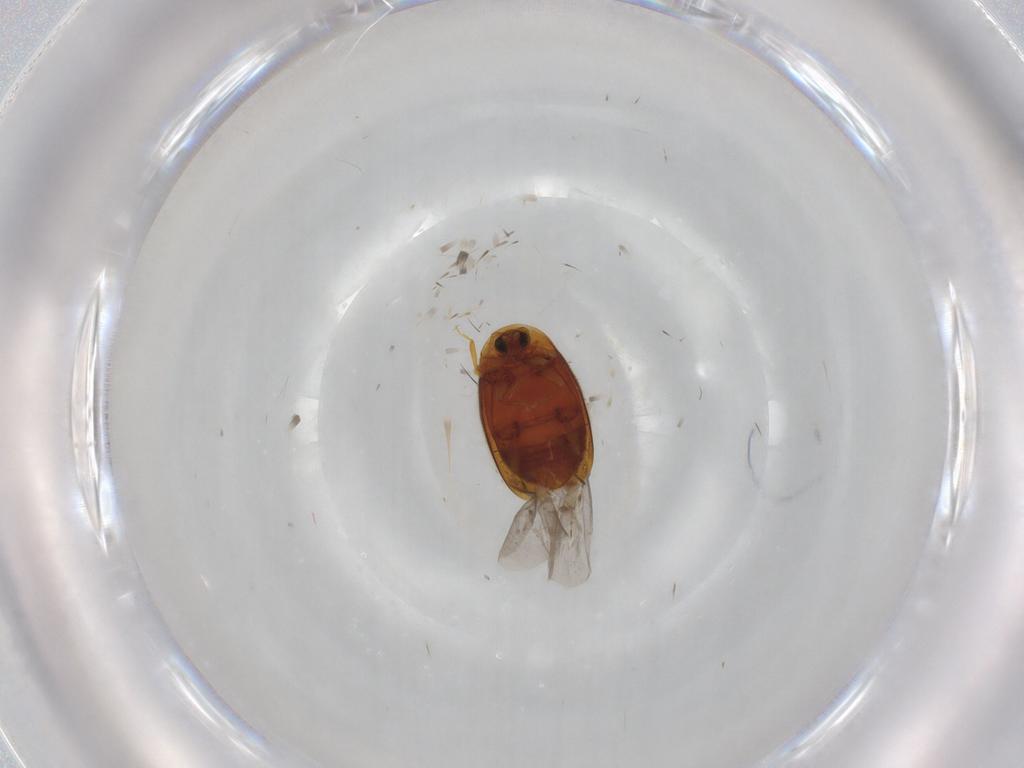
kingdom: Animalia
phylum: Arthropoda
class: Insecta
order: Coleoptera
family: Corylophidae
